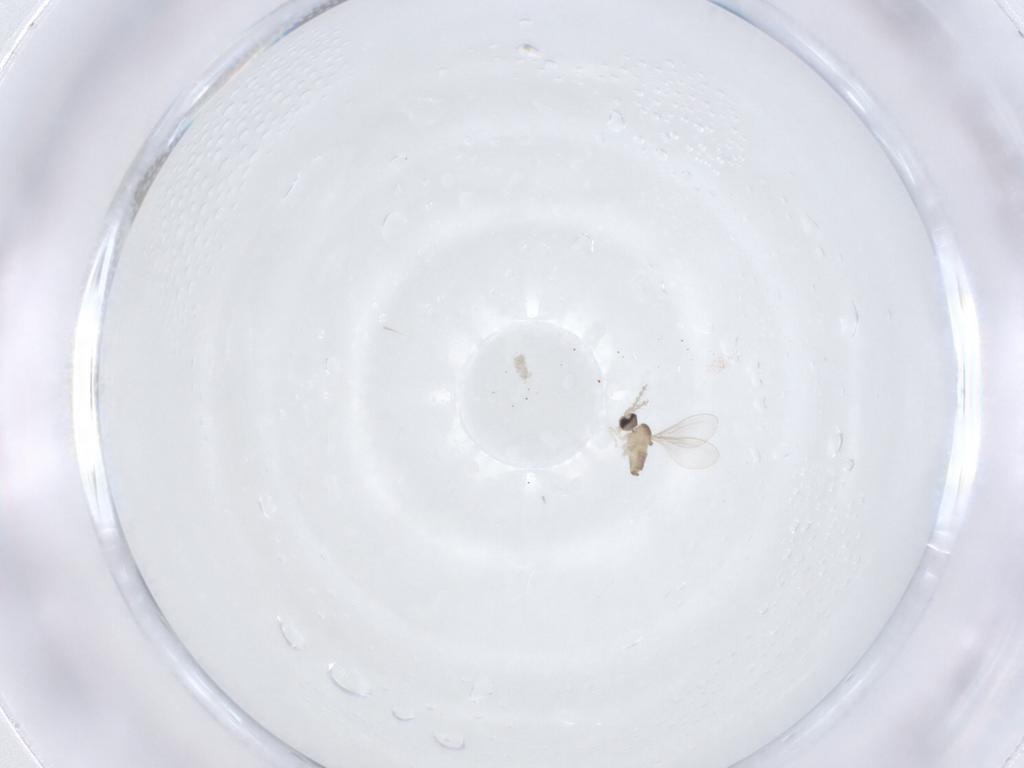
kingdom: Animalia
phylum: Arthropoda
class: Insecta
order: Diptera
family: Cecidomyiidae
